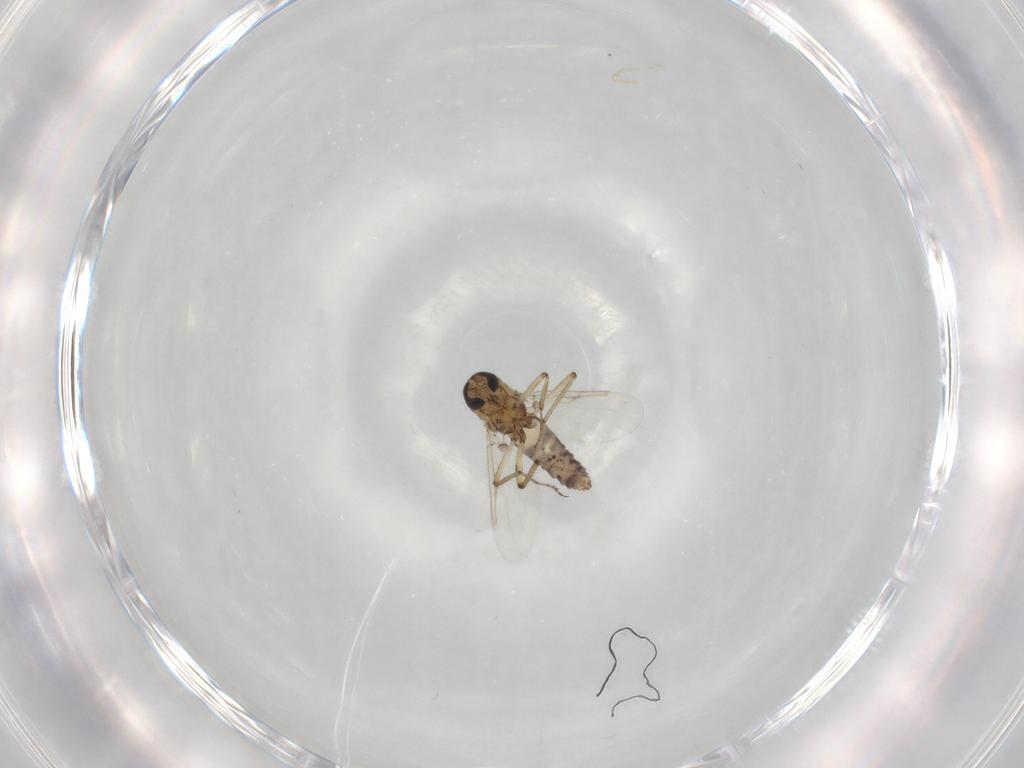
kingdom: Animalia
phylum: Arthropoda
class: Insecta
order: Diptera
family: Ceratopogonidae
